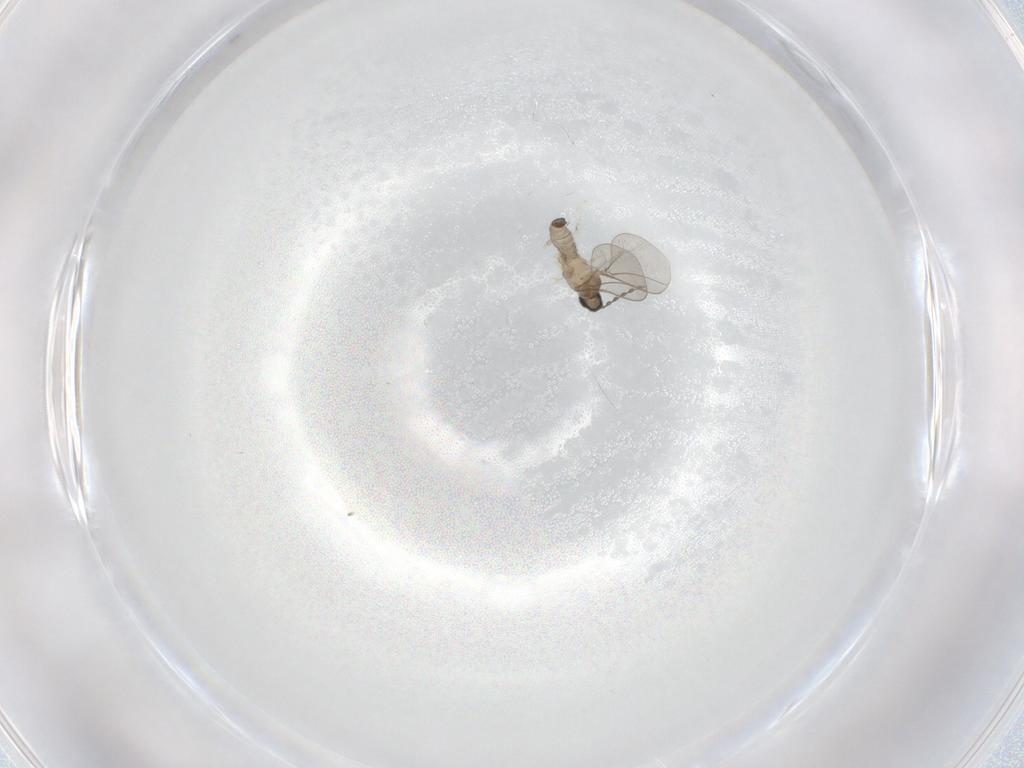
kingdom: Animalia
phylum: Arthropoda
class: Insecta
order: Diptera
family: Cecidomyiidae
